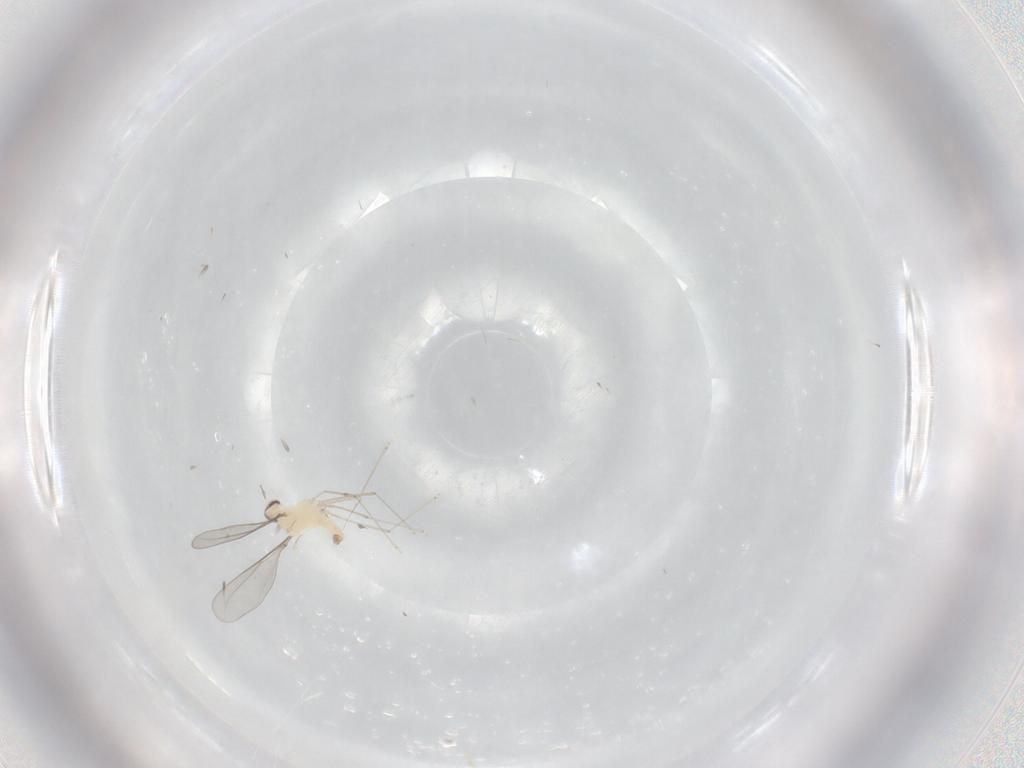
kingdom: Animalia
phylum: Arthropoda
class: Insecta
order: Diptera
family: Cecidomyiidae
